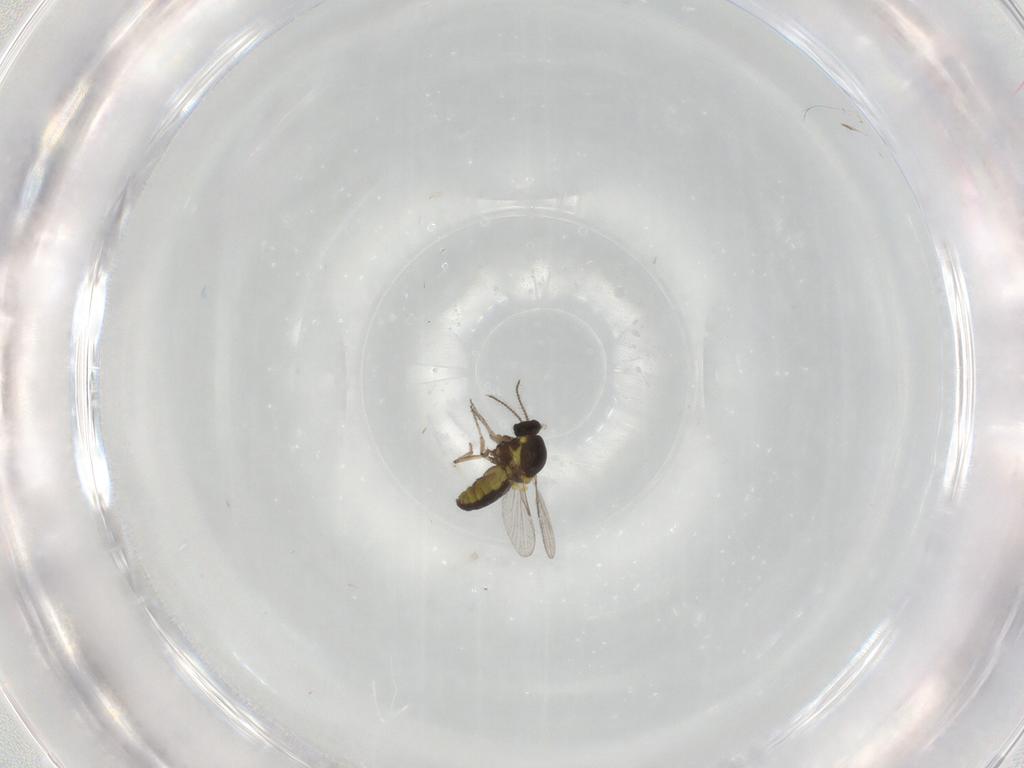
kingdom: Animalia
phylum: Arthropoda
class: Insecta
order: Diptera
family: Ceratopogonidae
